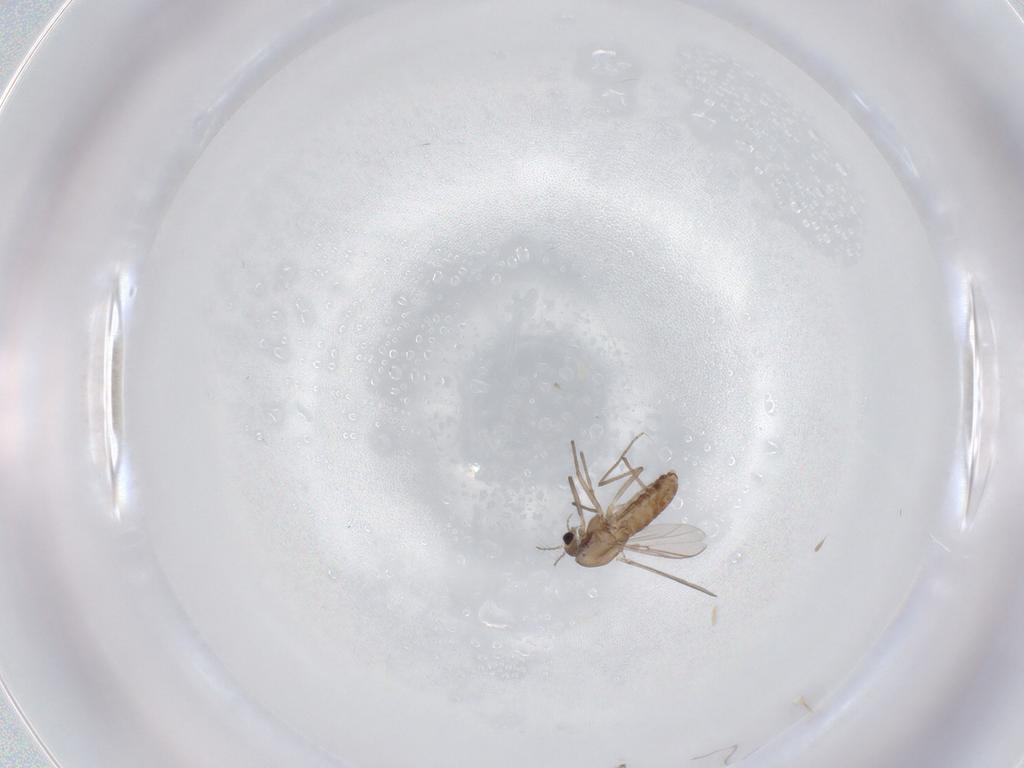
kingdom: Animalia
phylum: Arthropoda
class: Insecta
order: Diptera
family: Chironomidae
